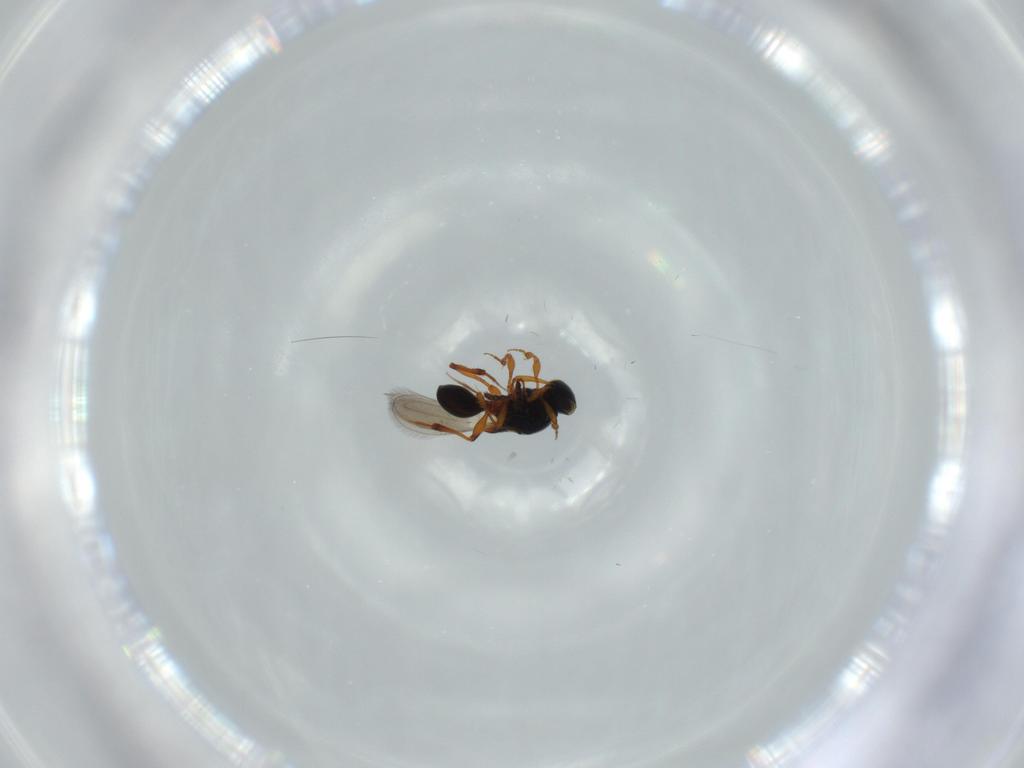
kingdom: Animalia
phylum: Arthropoda
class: Insecta
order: Hymenoptera
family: Platygastridae
